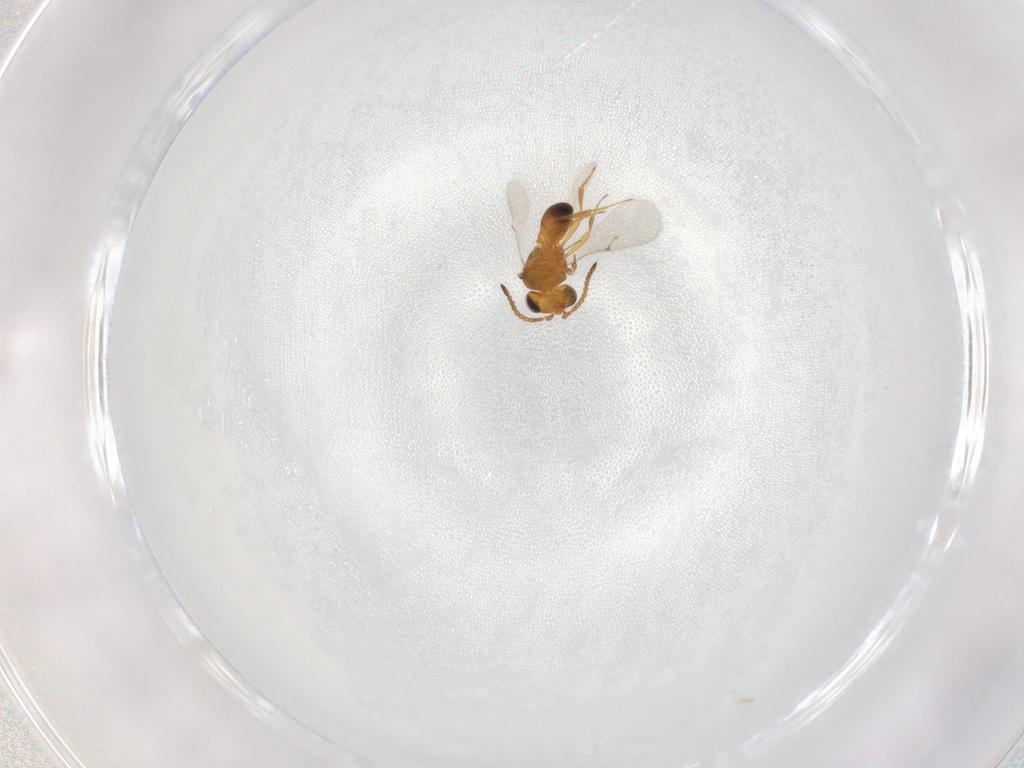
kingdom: Animalia
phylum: Arthropoda
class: Insecta
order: Hymenoptera
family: Scelionidae
